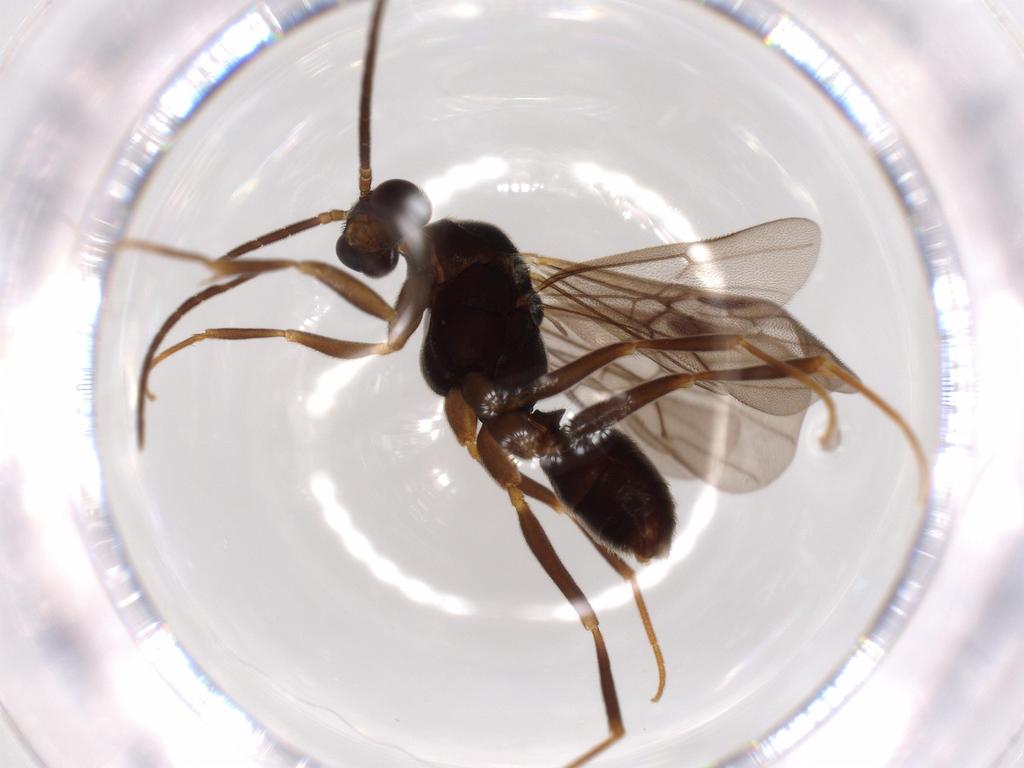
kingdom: Animalia
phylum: Arthropoda
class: Insecta
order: Hymenoptera
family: Formicidae
